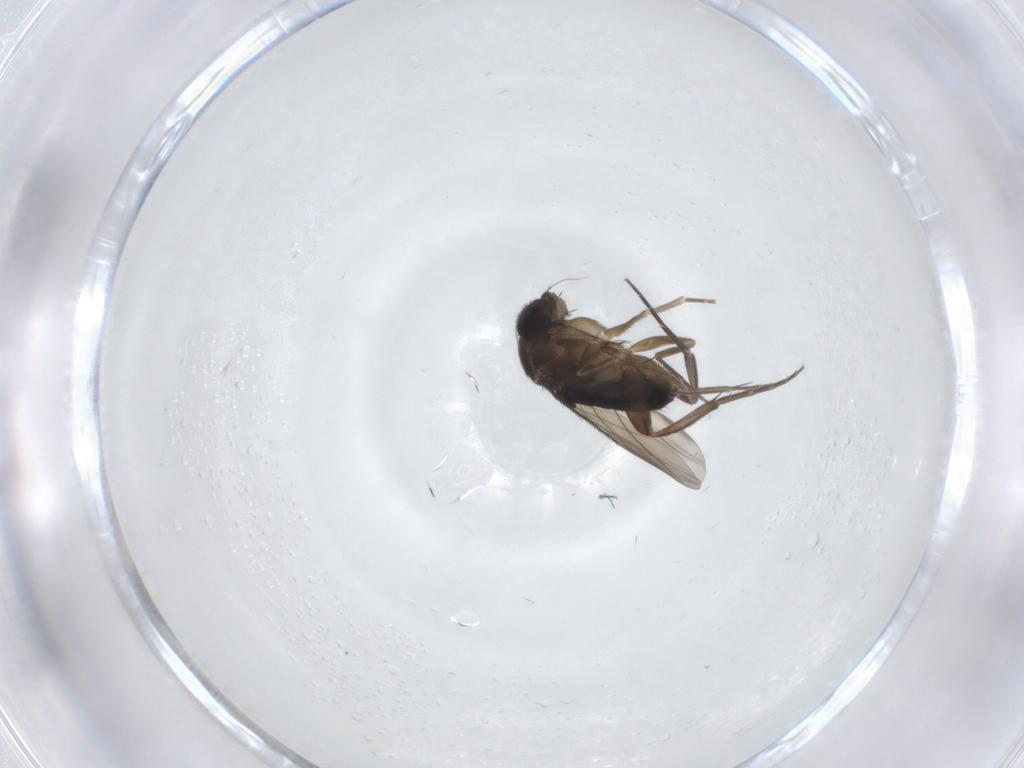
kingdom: Animalia
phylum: Arthropoda
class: Insecta
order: Diptera
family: Phoridae
